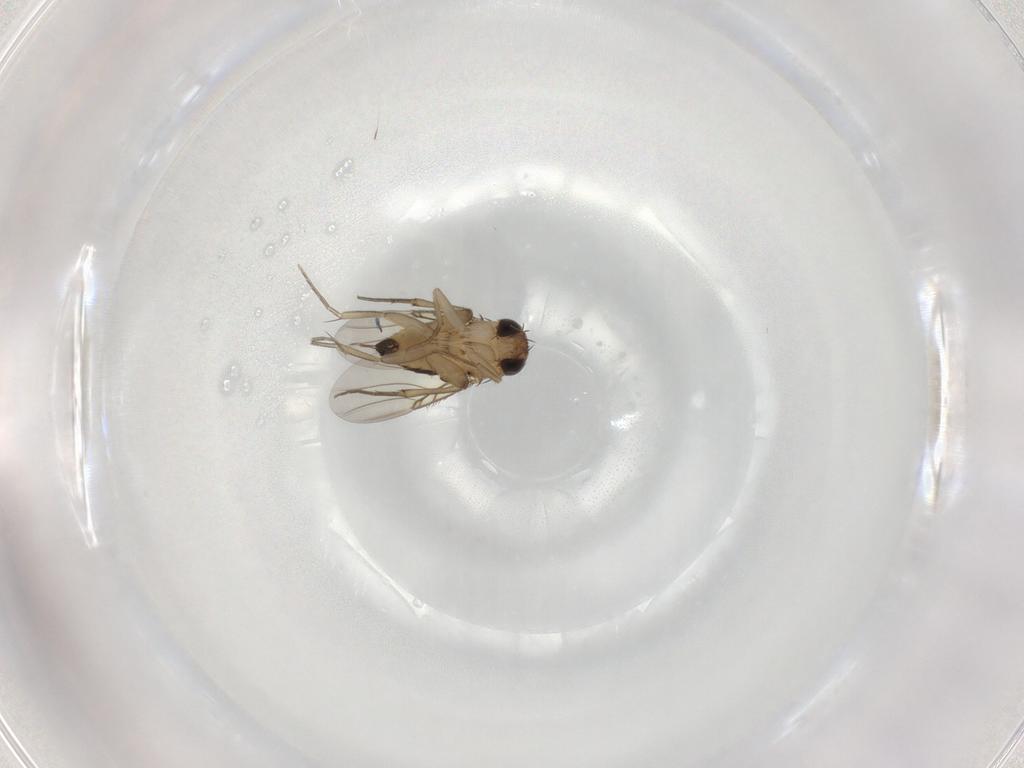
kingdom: Animalia
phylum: Arthropoda
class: Insecta
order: Diptera
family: Phoridae
